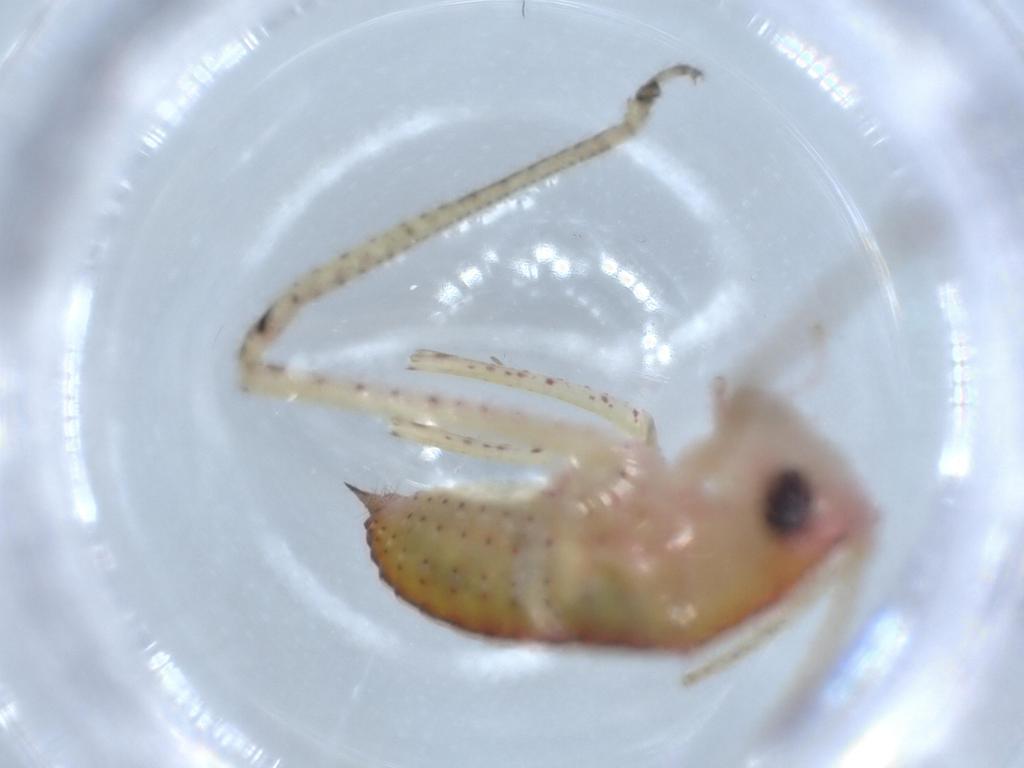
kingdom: Animalia
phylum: Arthropoda
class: Insecta
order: Orthoptera
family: Tettigoniidae
